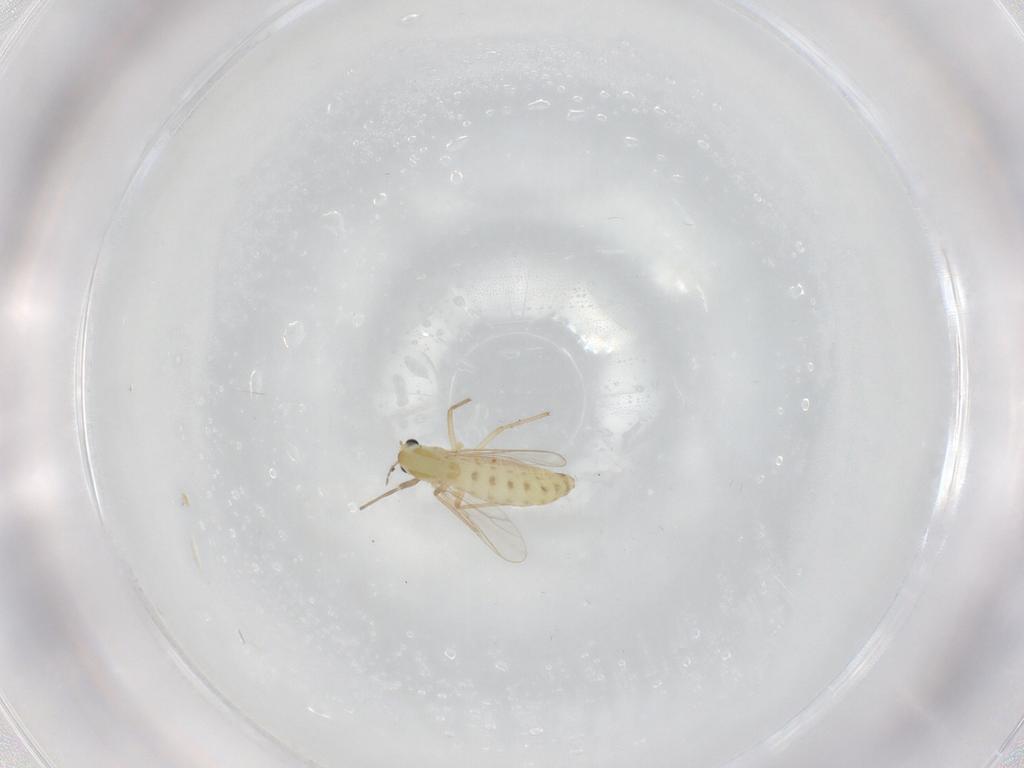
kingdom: Animalia
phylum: Arthropoda
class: Insecta
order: Diptera
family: Chironomidae
